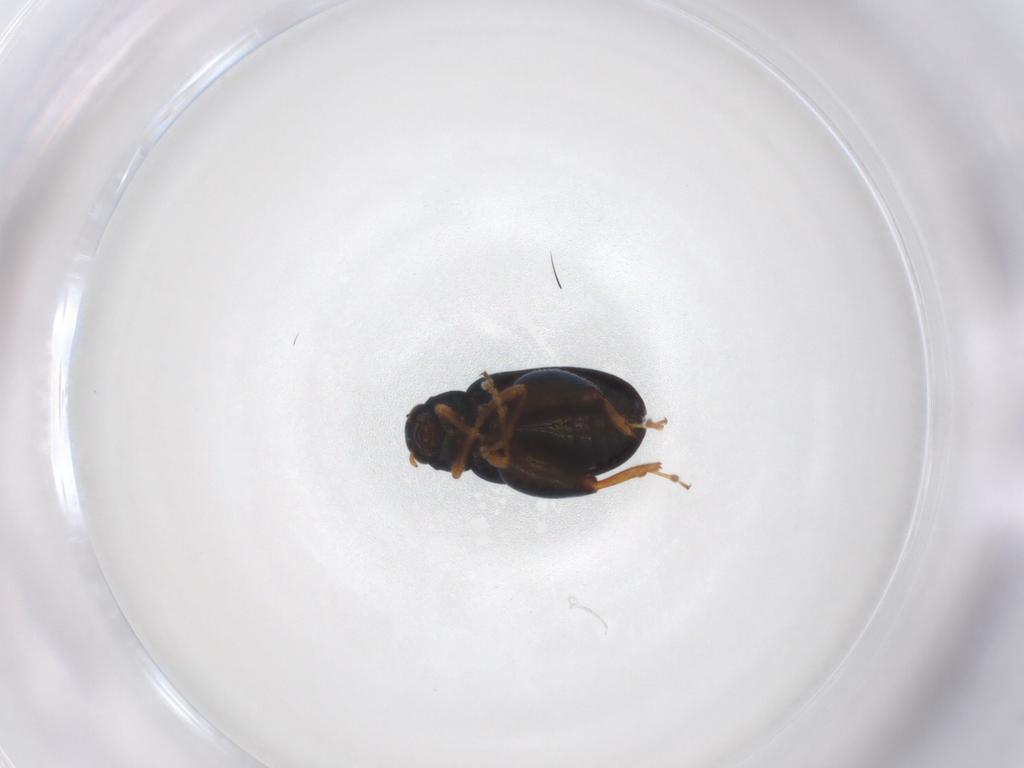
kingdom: Animalia
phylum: Arthropoda
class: Insecta
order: Coleoptera
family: Chrysomelidae
